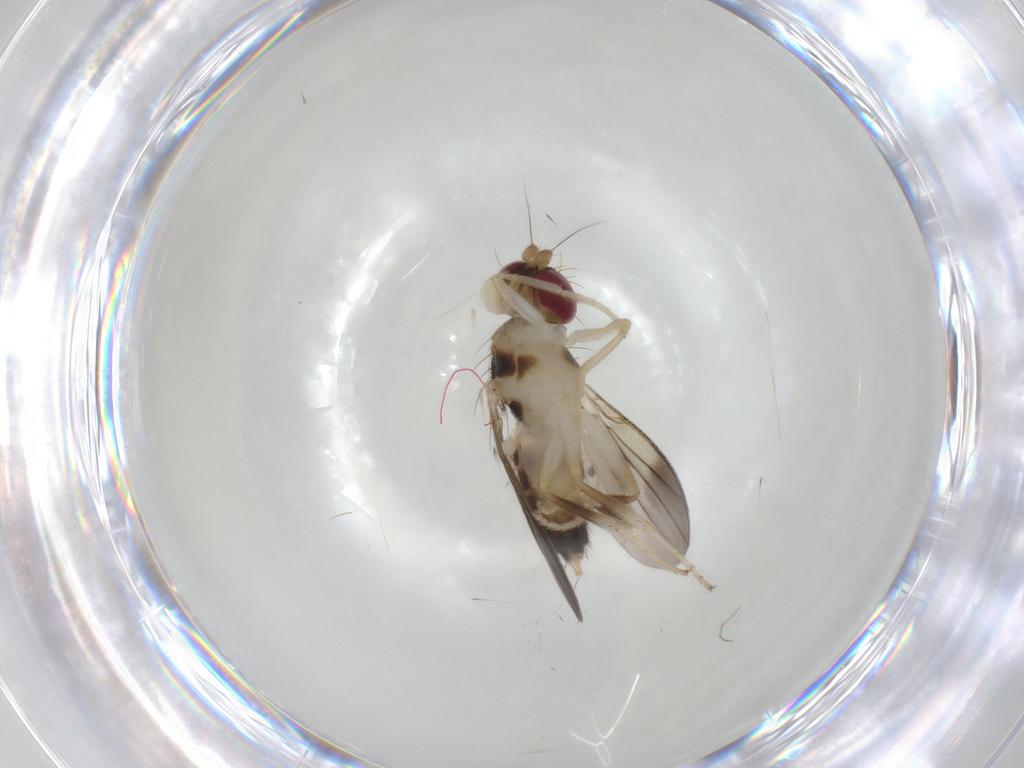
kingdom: Animalia
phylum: Arthropoda
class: Insecta
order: Diptera
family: Clusiidae
